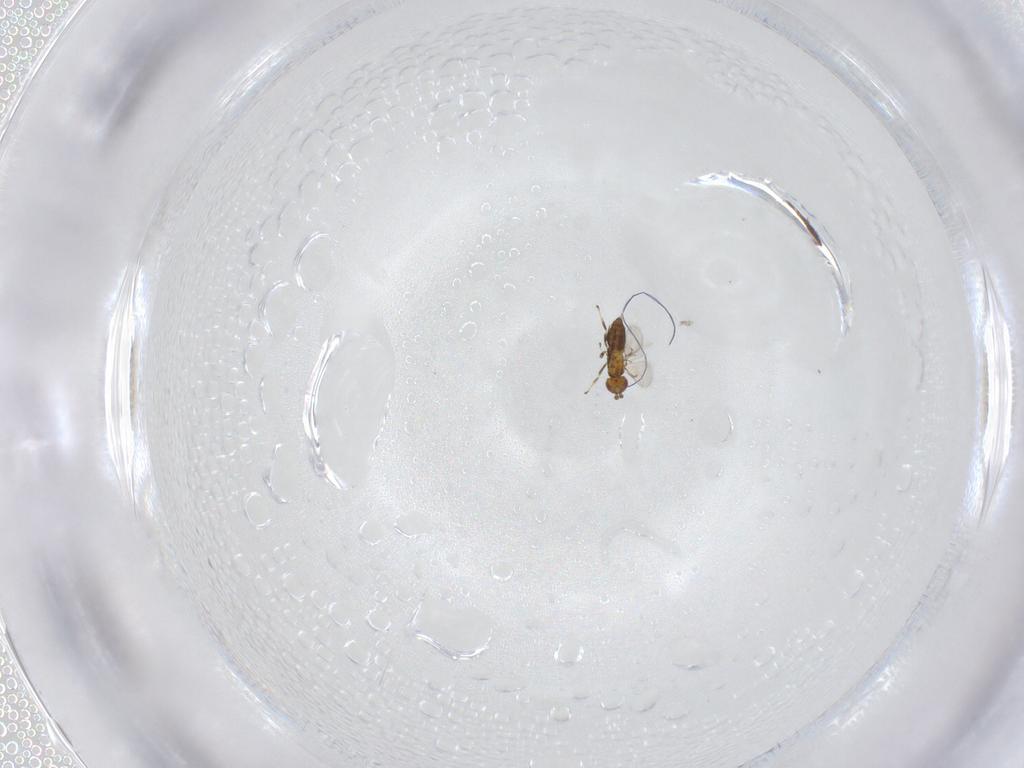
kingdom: Animalia
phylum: Arthropoda
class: Insecta
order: Hymenoptera
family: Trichogrammatidae
